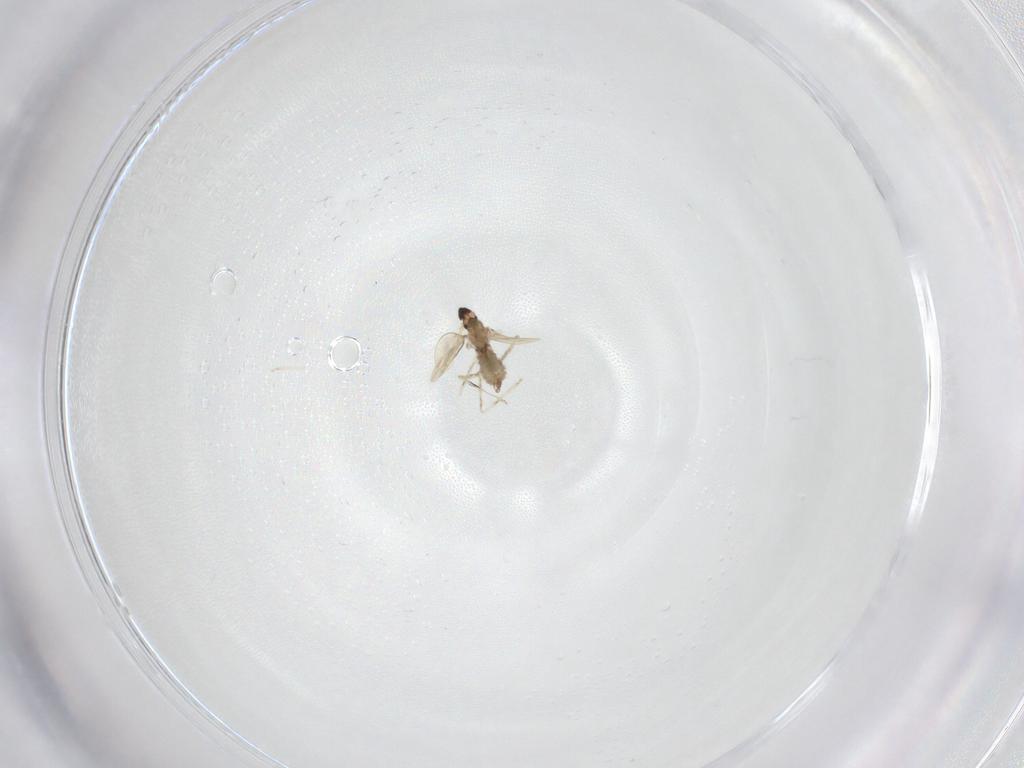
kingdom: Animalia
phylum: Arthropoda
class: Insecta
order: Diptera
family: Cecidomyiidae
